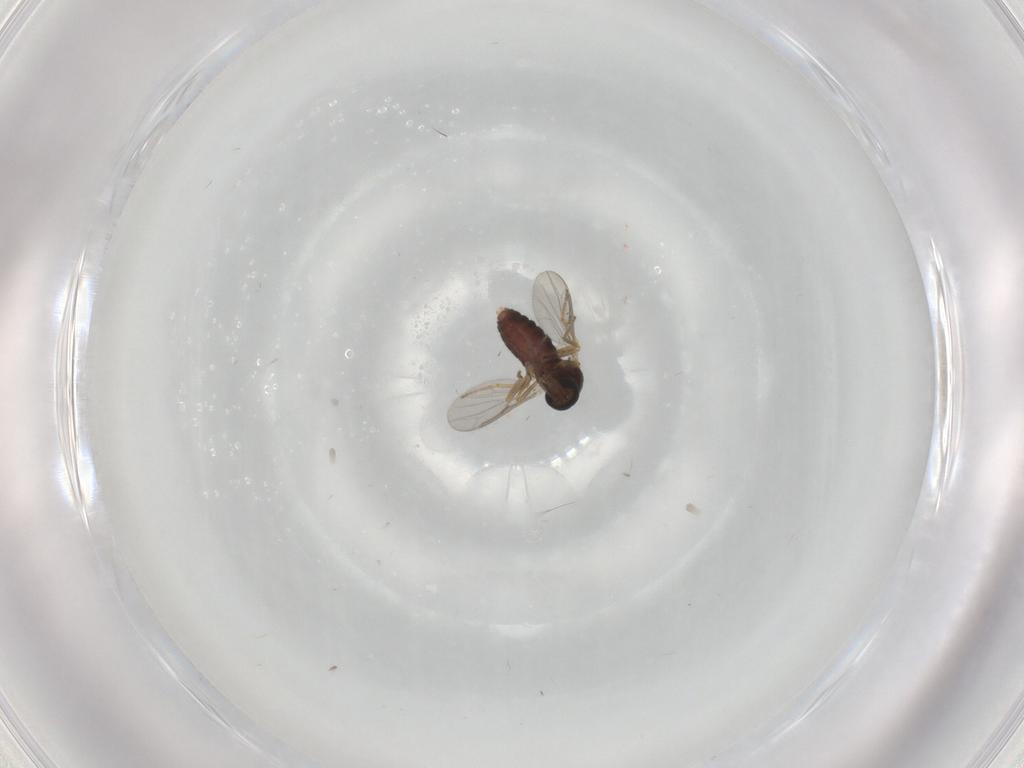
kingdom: Animalia
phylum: Arthropoda
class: Insecta
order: Diptera
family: Ceratopogonidae
